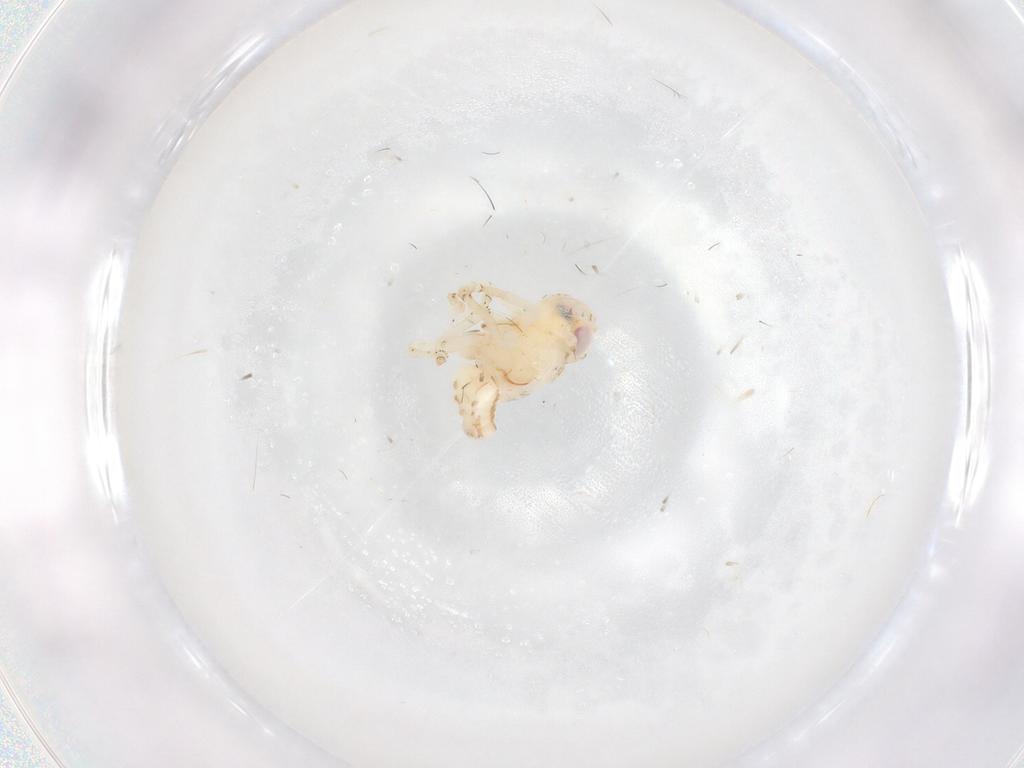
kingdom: Animalia
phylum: Arthropoda
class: Insecta
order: Hemiptera
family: Nogodinidae
